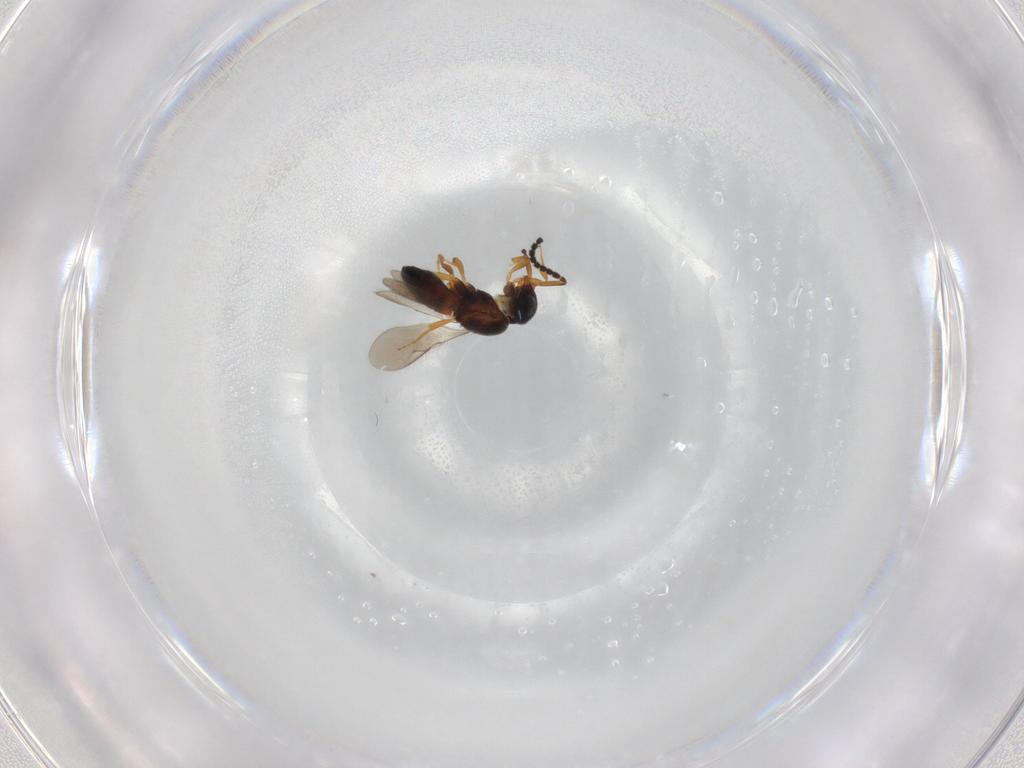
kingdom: Animalia
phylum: Arthropoda
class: Insecta
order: Hymenoptera
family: Scelionidae
